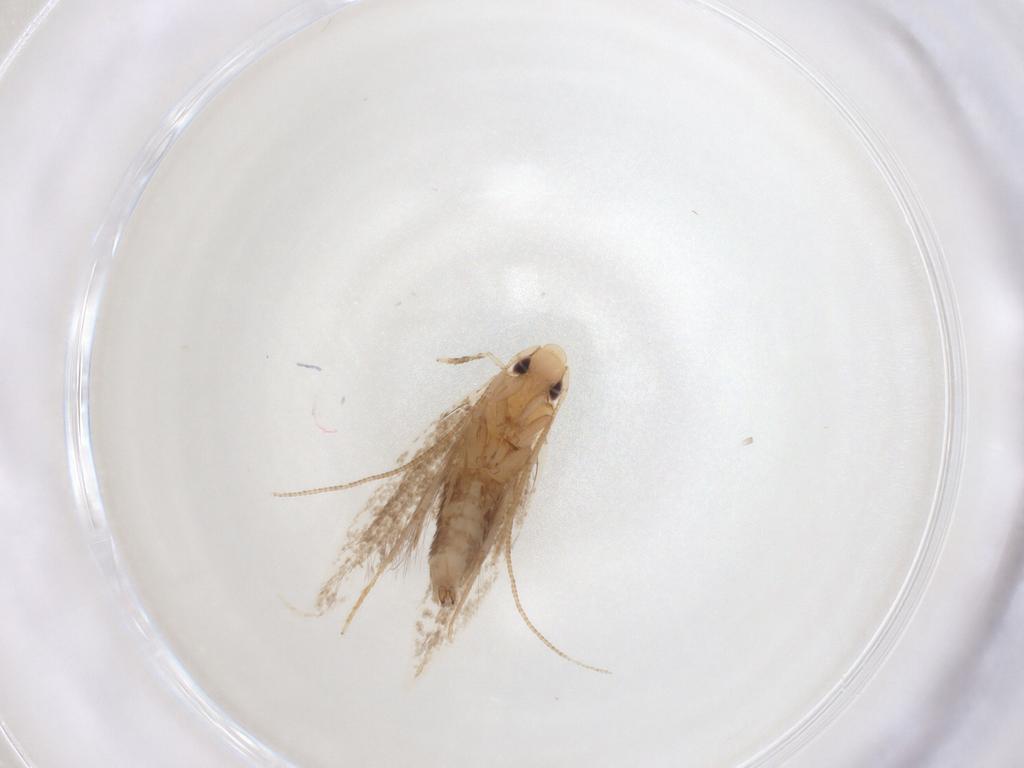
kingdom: Animalia
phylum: Arthropoda
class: Insecta
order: Lepidoptera
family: Tineidae
